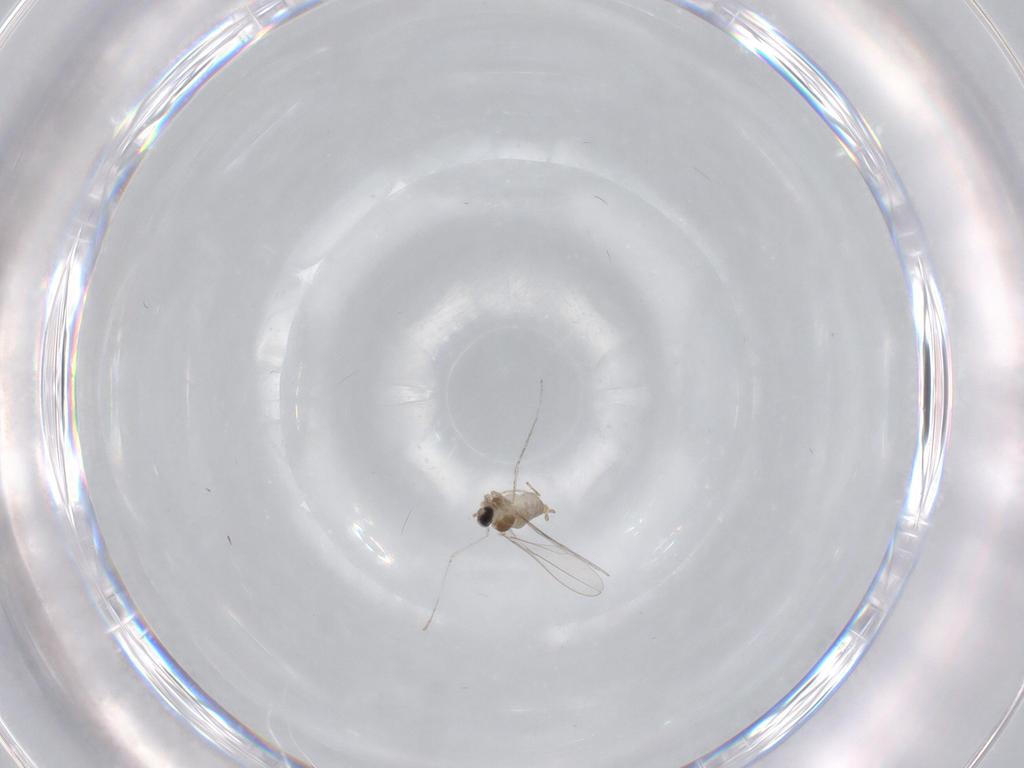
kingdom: Animalia
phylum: Arthropoda
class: Insecta
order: Diptera
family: Cecidomyiidae
